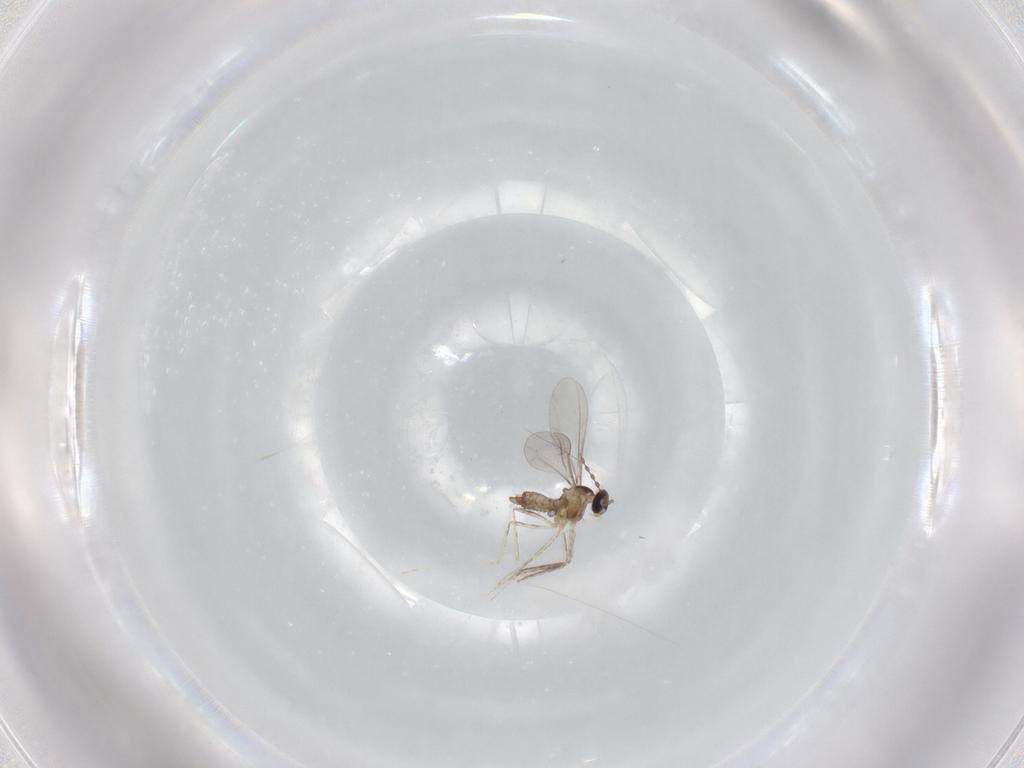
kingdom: Animalia
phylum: Arthropoda
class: Insecta
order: Diptera
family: Cecidomyiidae
